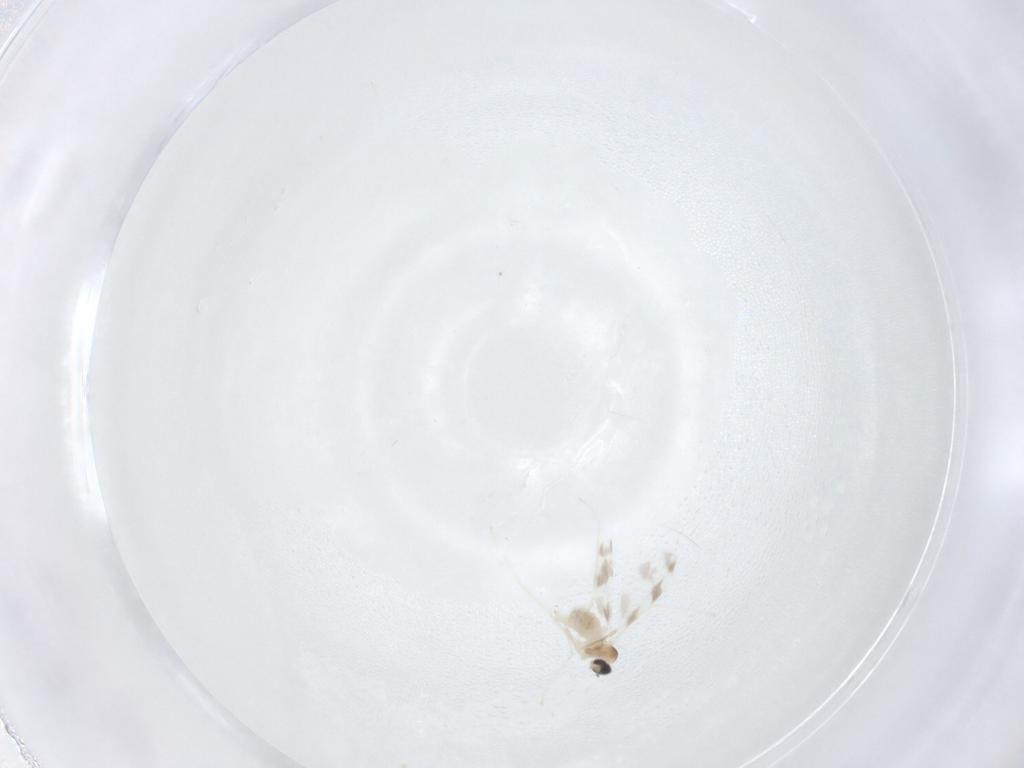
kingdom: Animalia
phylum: Arthropoda
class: Insecta
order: Diptera
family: Cecidomyiidae
